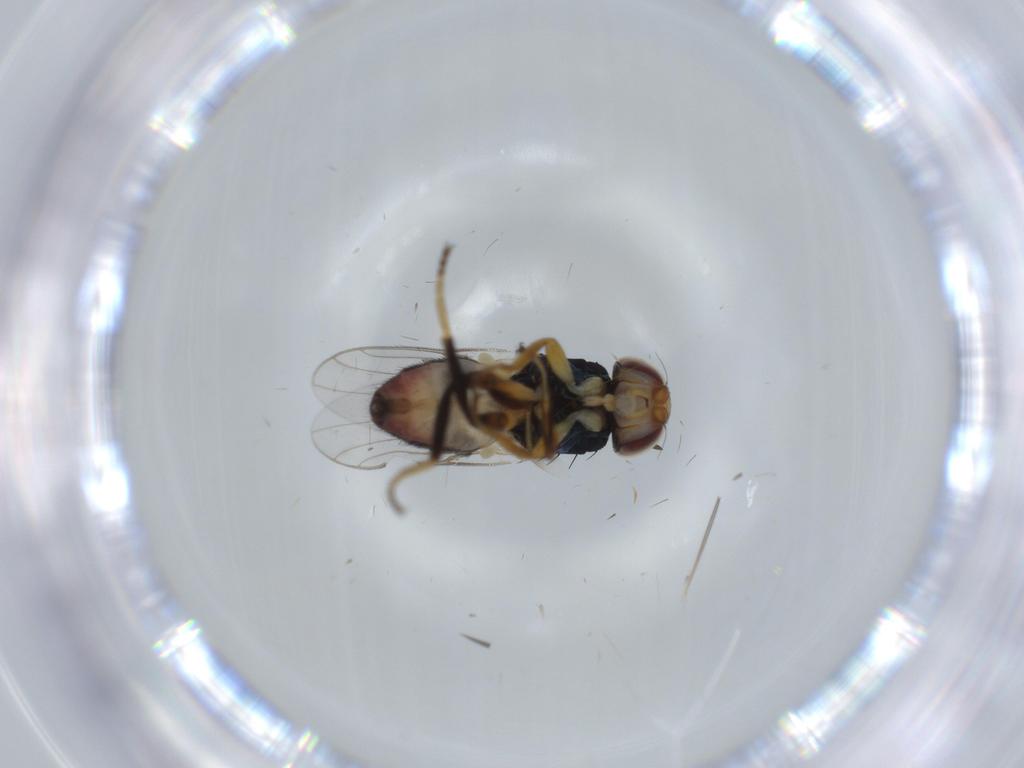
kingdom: Animalia
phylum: Arthropoda
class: Insecta
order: Diptera
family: Chloropidae
